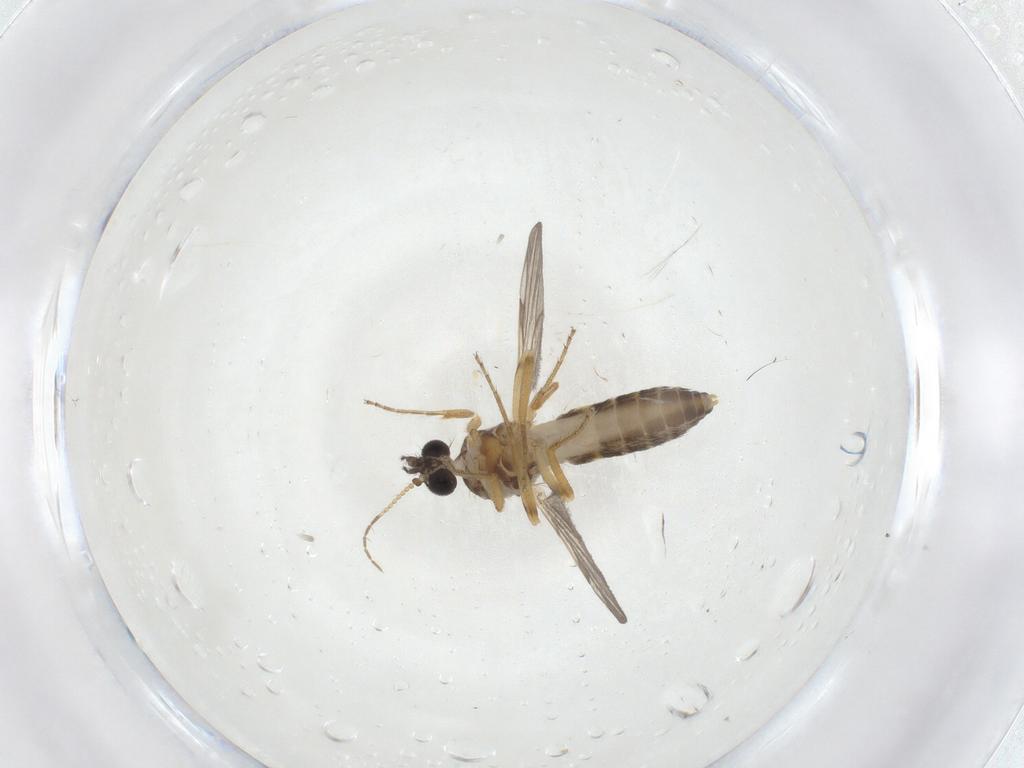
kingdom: Animalia
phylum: Arthropoda
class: Insecta
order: Diptera
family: Ceratopogonidae
